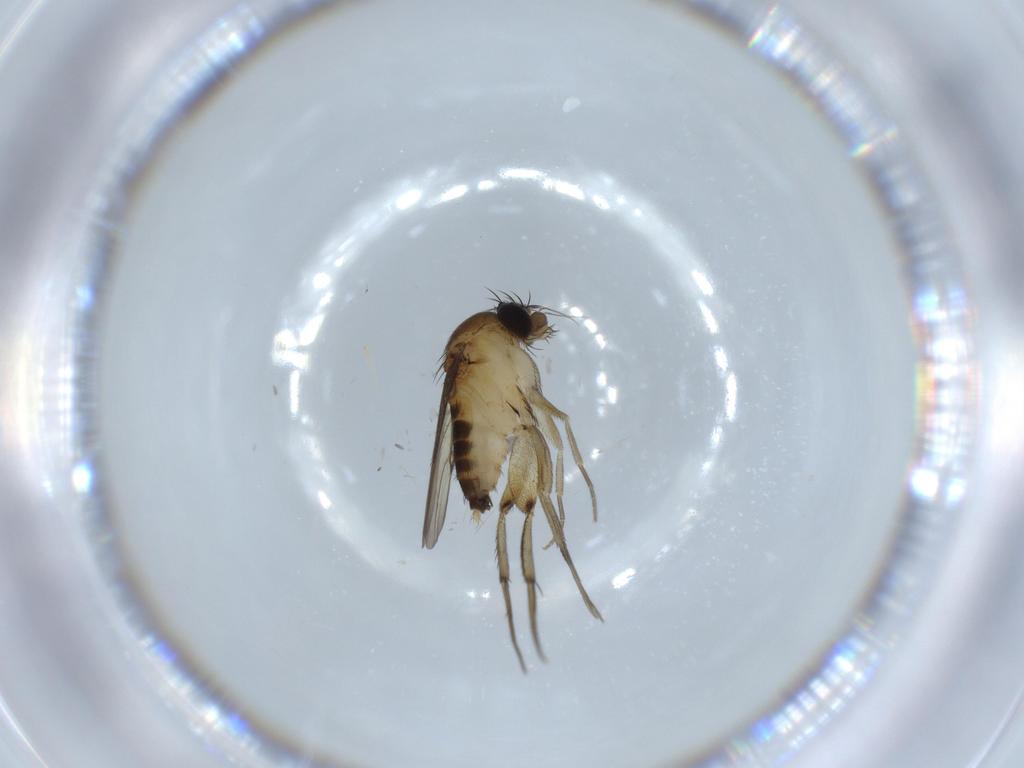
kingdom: Animalia
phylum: Arthropoda
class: Insecta
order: Diptera
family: Phoridae
